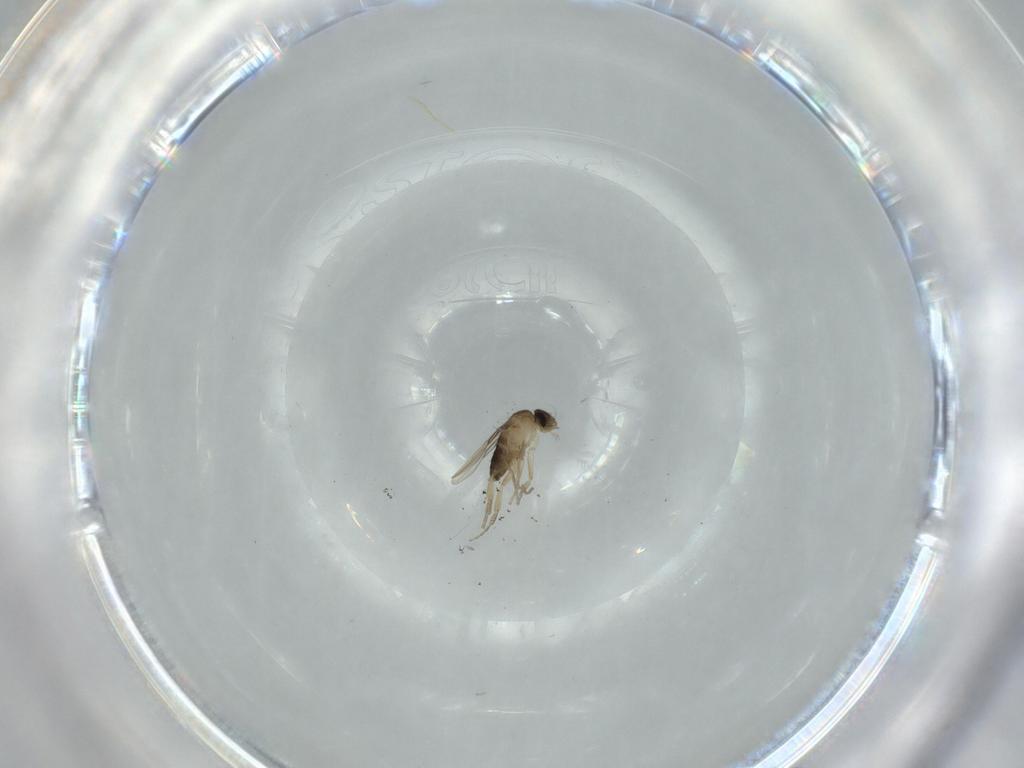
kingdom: Animalia
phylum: Arthropoda
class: Insecta
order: Diptera
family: Phoridae
